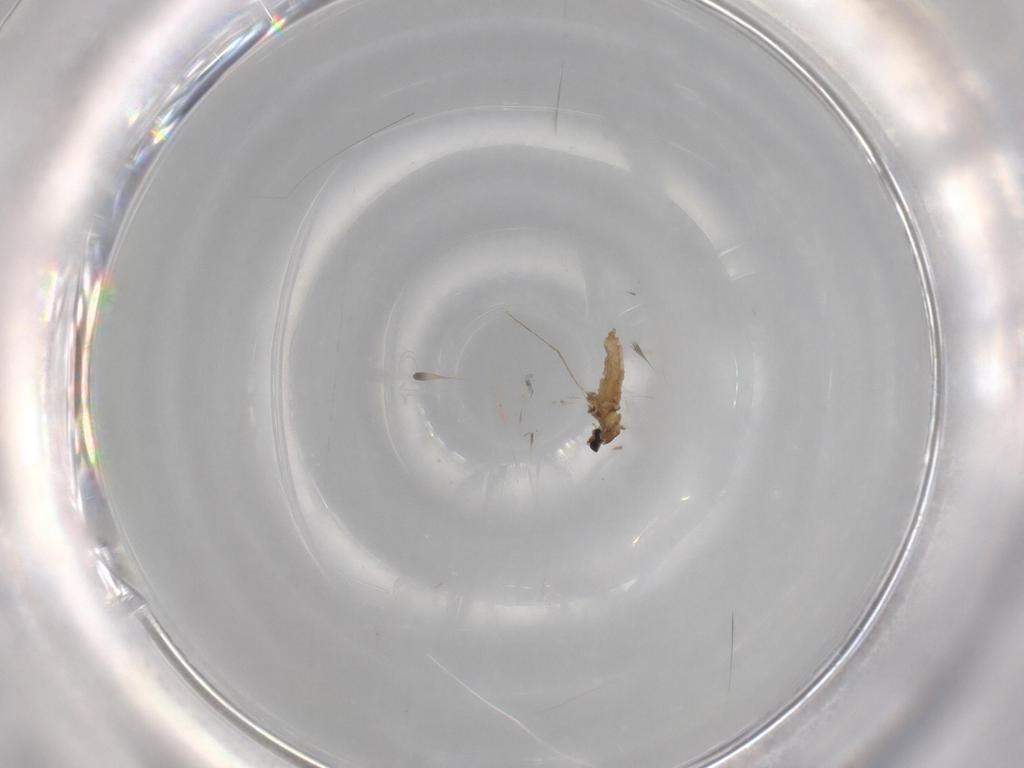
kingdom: Animalia
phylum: Arthropoda
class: Insecta
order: Diptera
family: Cecidomyiidae
